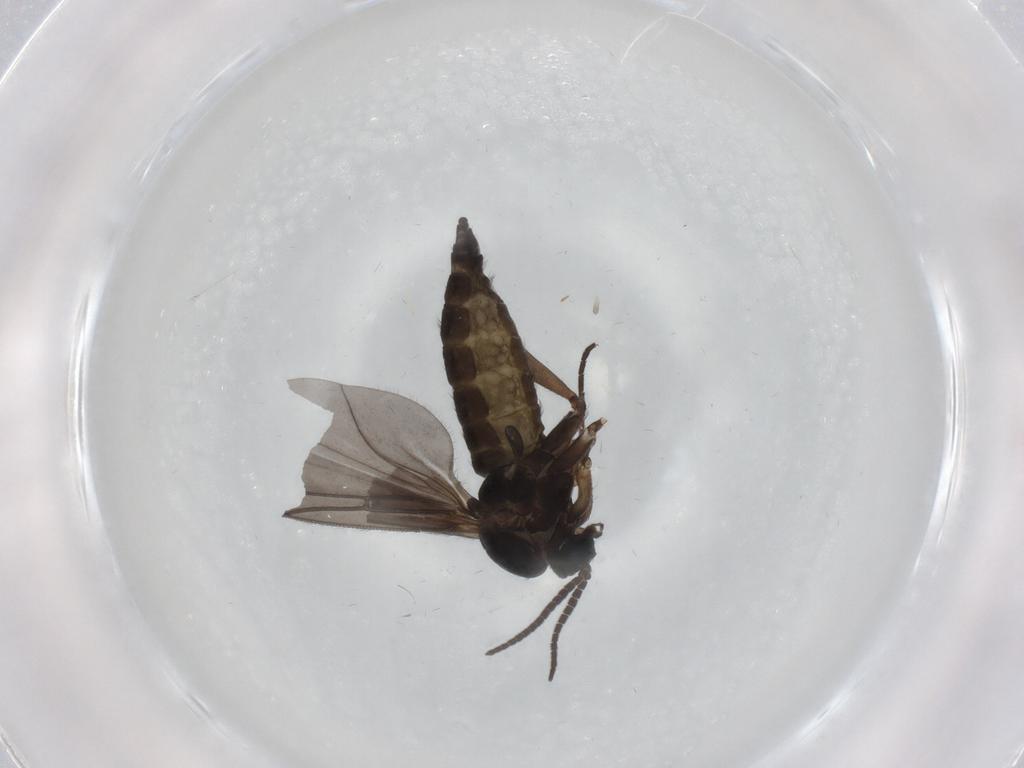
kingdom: Animalia
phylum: Arthropoda
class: Insecta
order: Diptera
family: Sciaridae
